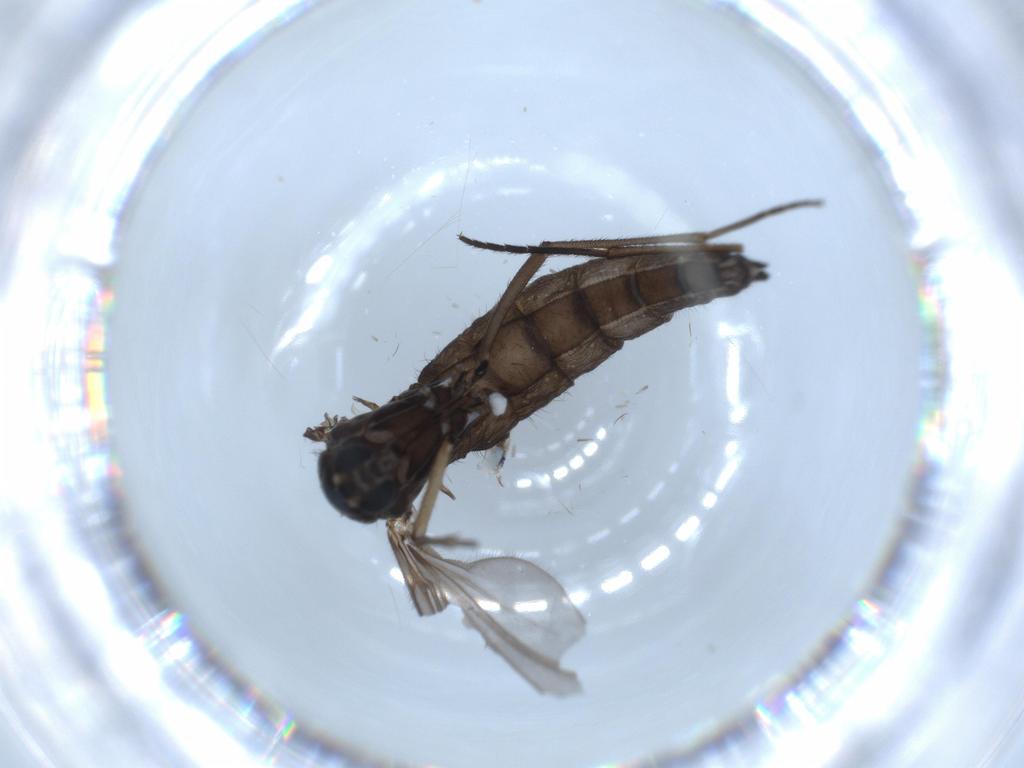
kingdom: Animalia
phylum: Arthropoda
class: Insecta
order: Diptera
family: Sciaridae
